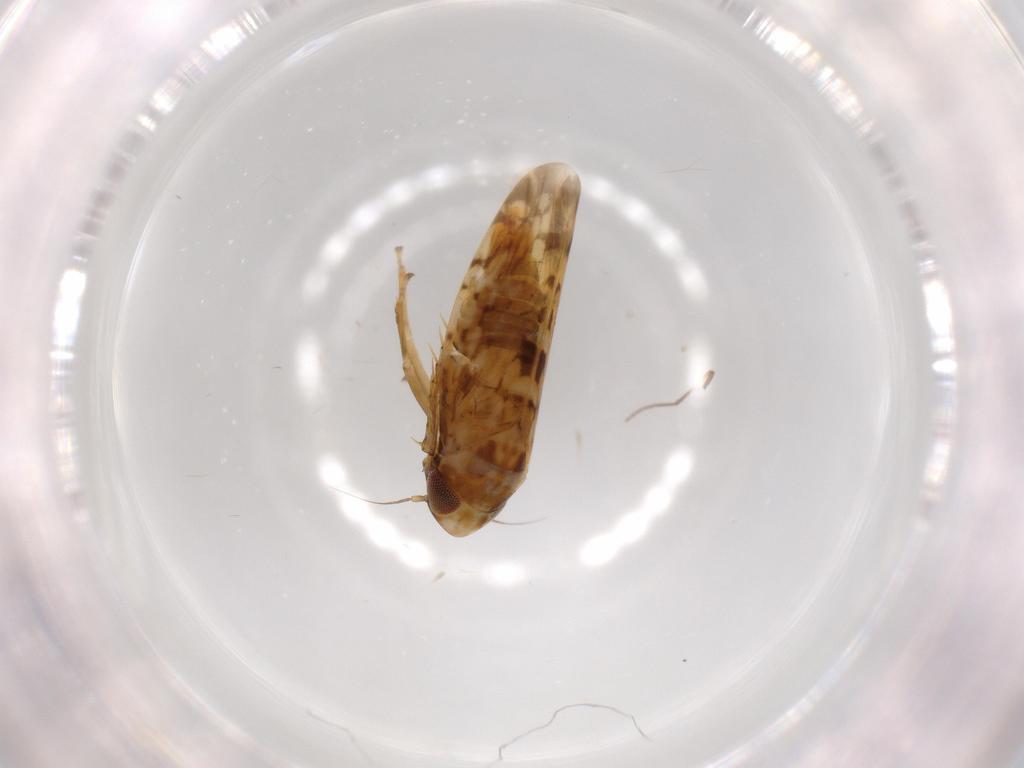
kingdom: Animalia
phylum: Arthropoda
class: Insecta
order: Hemiptera
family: Cicadellidae
